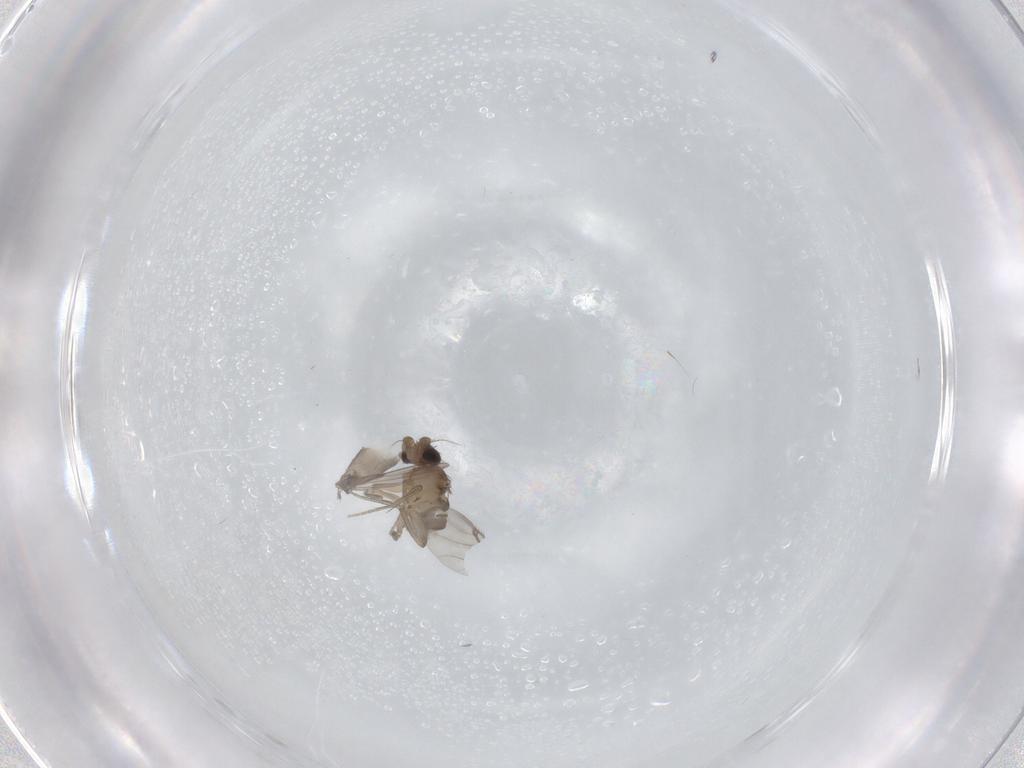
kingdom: Animalia
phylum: Arthropoda
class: Insecta
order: Diptera
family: Phoridae
